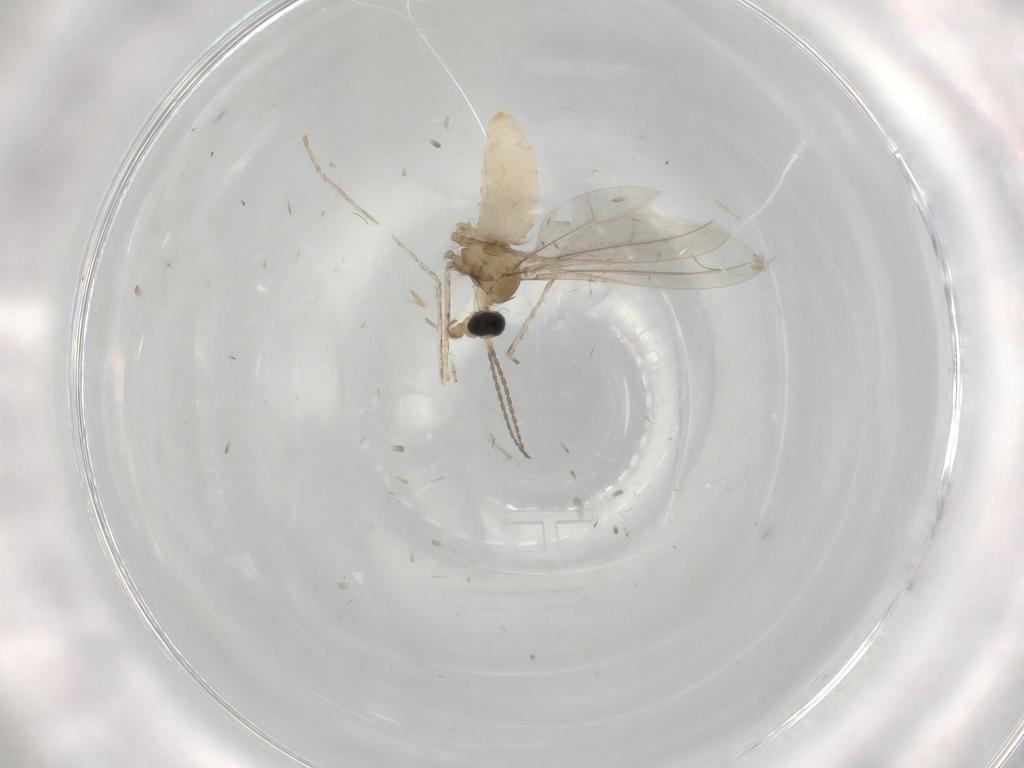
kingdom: Animalia
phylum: Arthropoda
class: Insecta
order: Diptera
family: Cecidomyiidae
